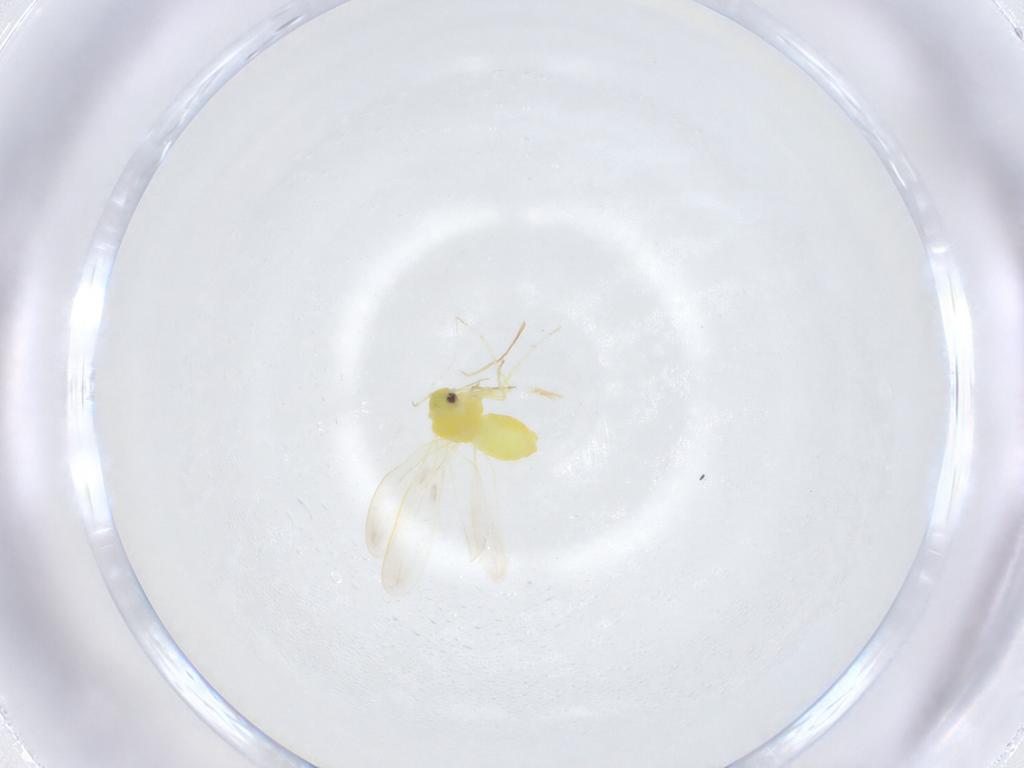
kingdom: Animalia
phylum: Arthropoda
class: Insecta
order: Hemiptera
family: Aleyrodidae
